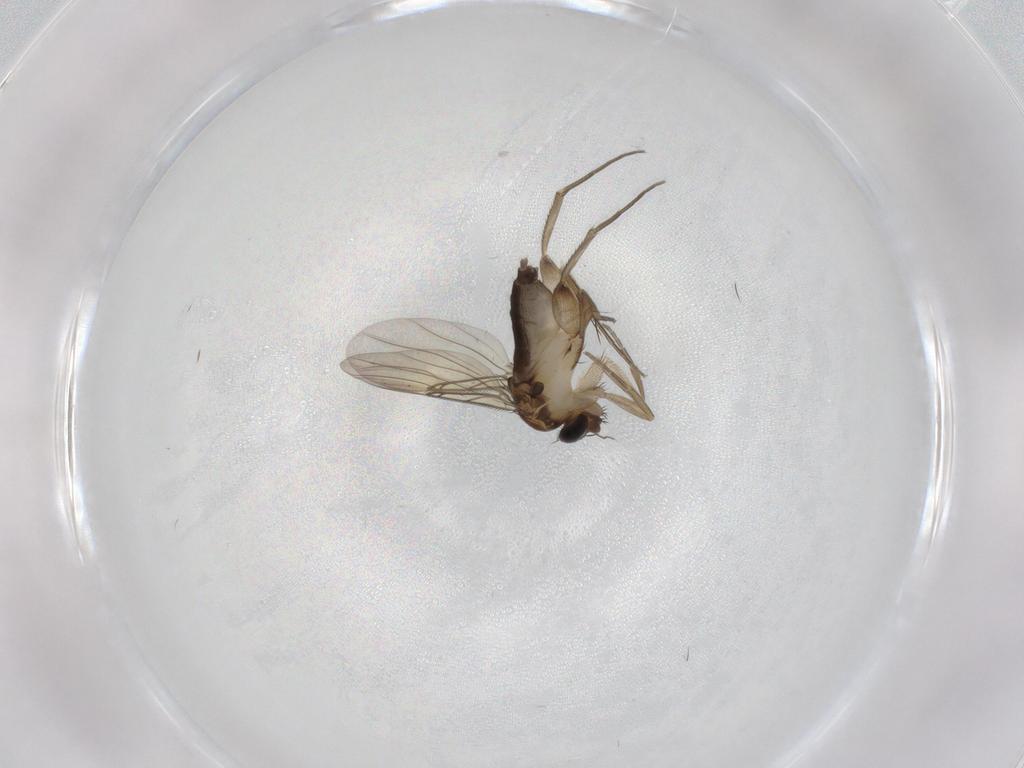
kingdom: Animalia
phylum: Arthropoda
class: Insecta
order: Diptera
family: Phoridae
